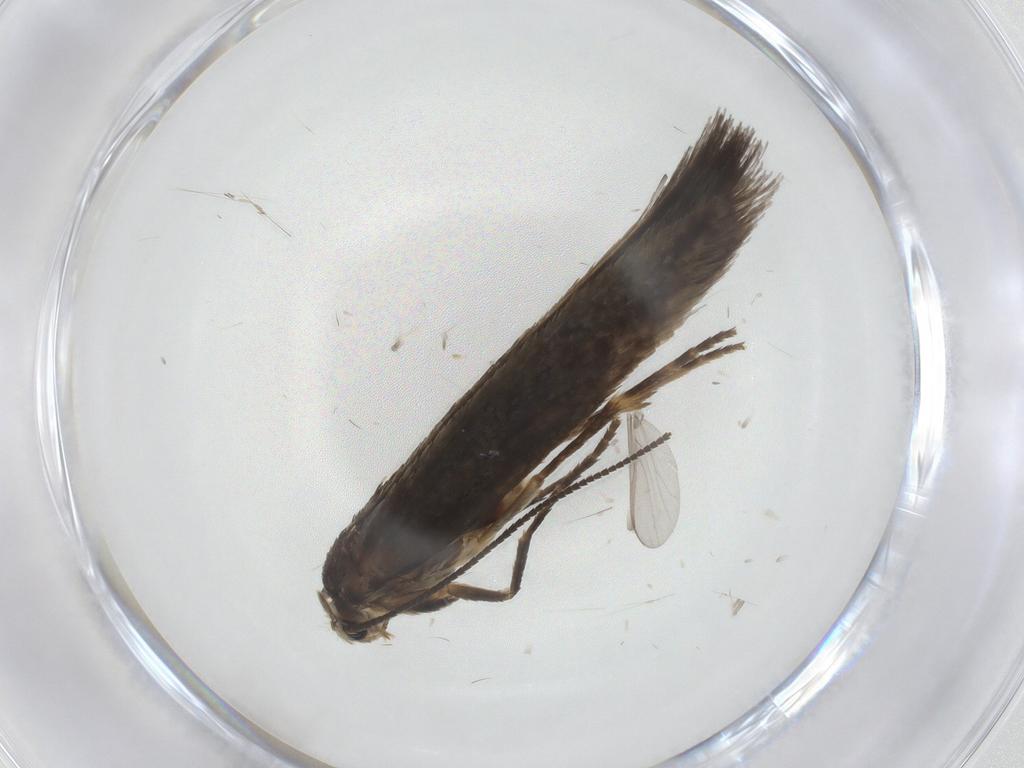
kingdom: Animalia
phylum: Arthropoda
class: Insecta
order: Lepidoptera
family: Nepticulidae
